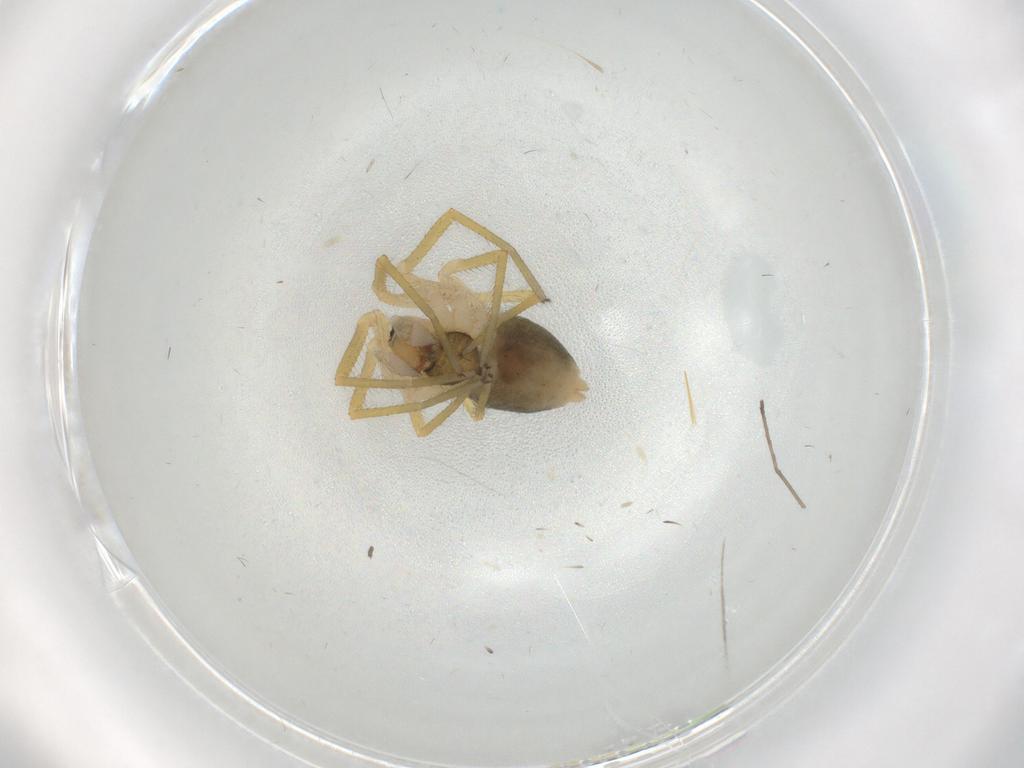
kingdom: Animalia
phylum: Arthropoda
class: Arachnida
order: Araneae
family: Linyphiidae
